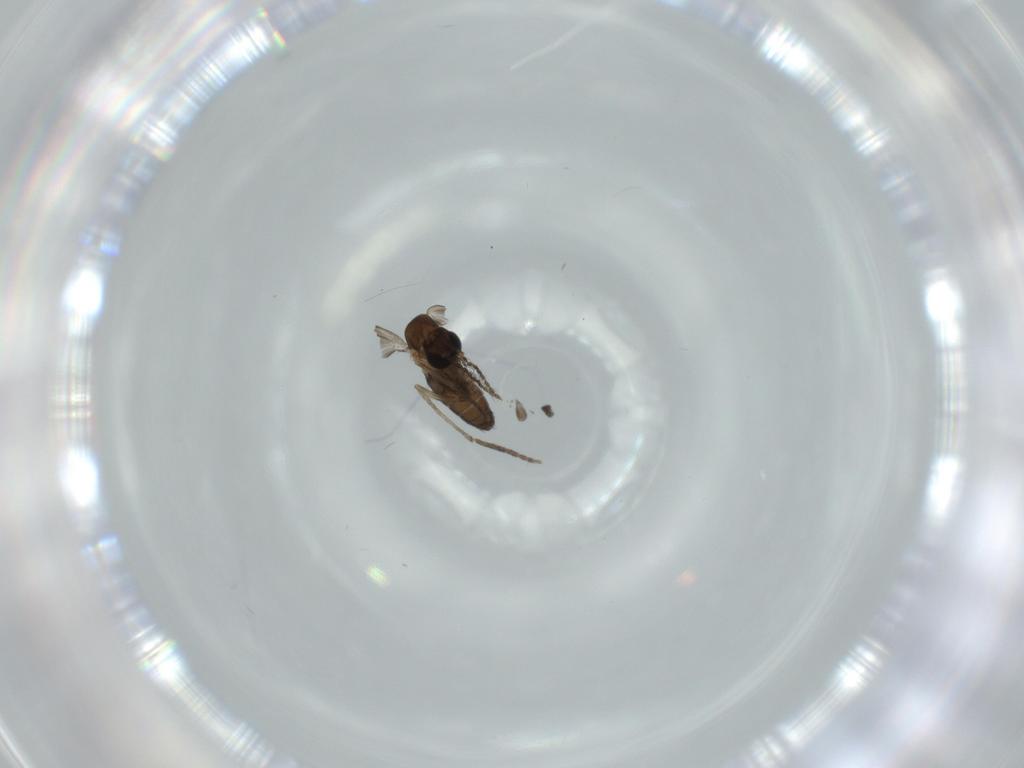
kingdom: Animalia
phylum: Arthropoda
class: Insecta
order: Diptera
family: Psychodidae
